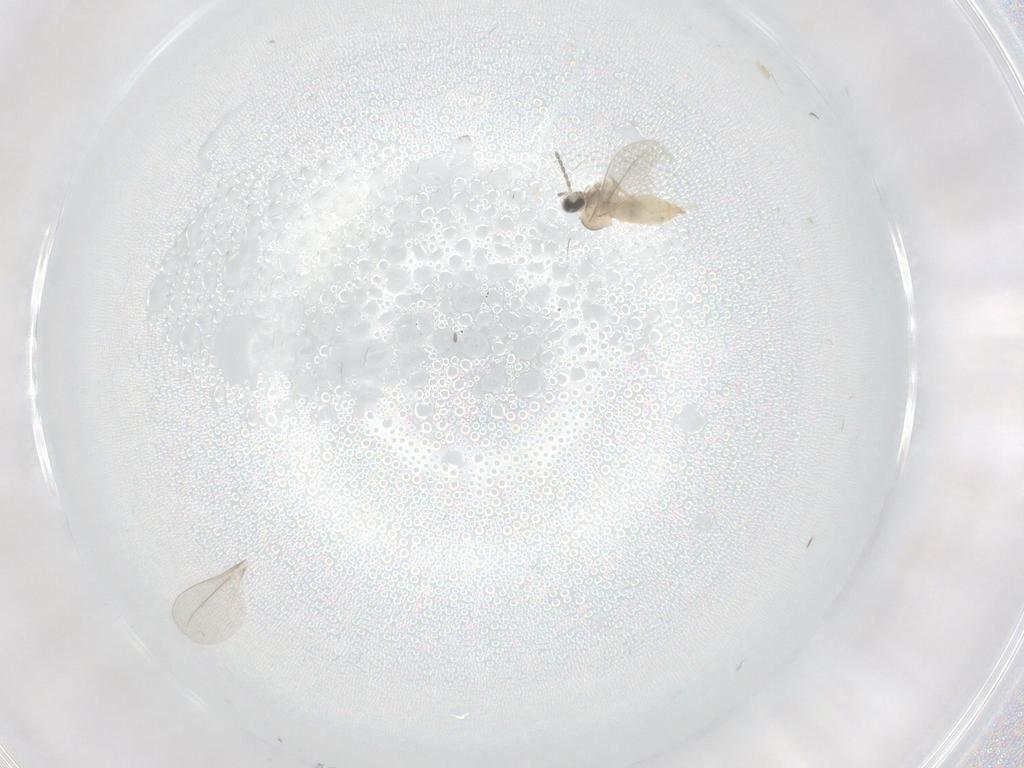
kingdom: Animalia
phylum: Arthropoda
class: Insecta
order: Diptera
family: Cecidomyiidae
